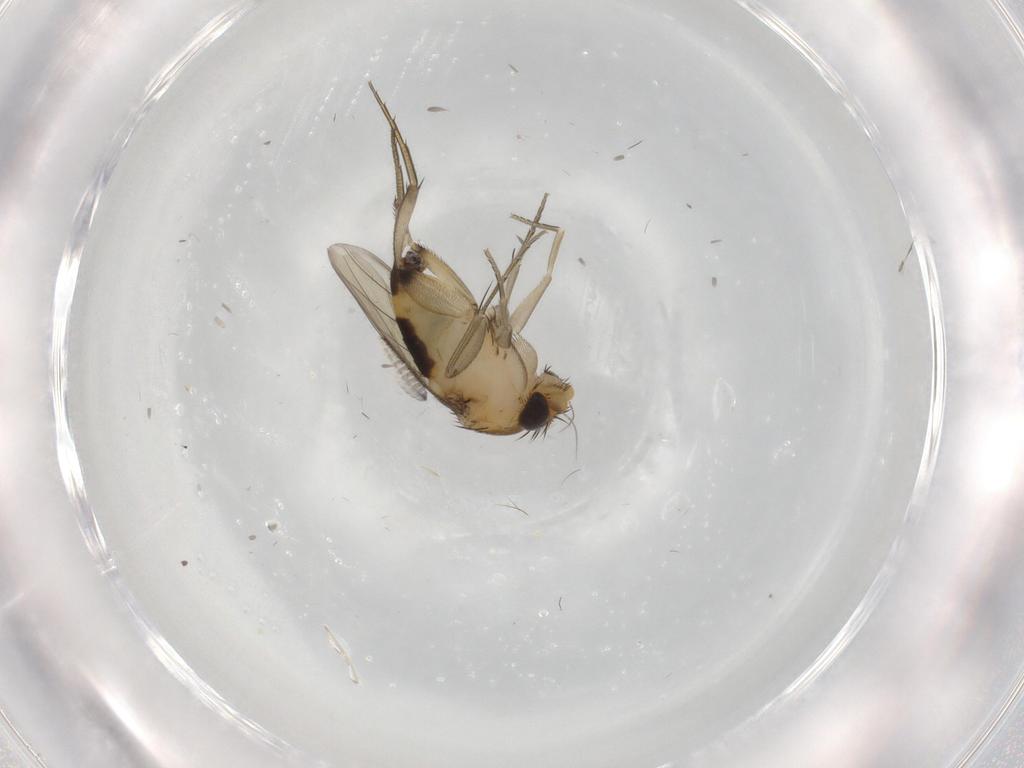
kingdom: Animalia
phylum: Arthropoda
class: Insecta
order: Diptera
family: Phoridae
